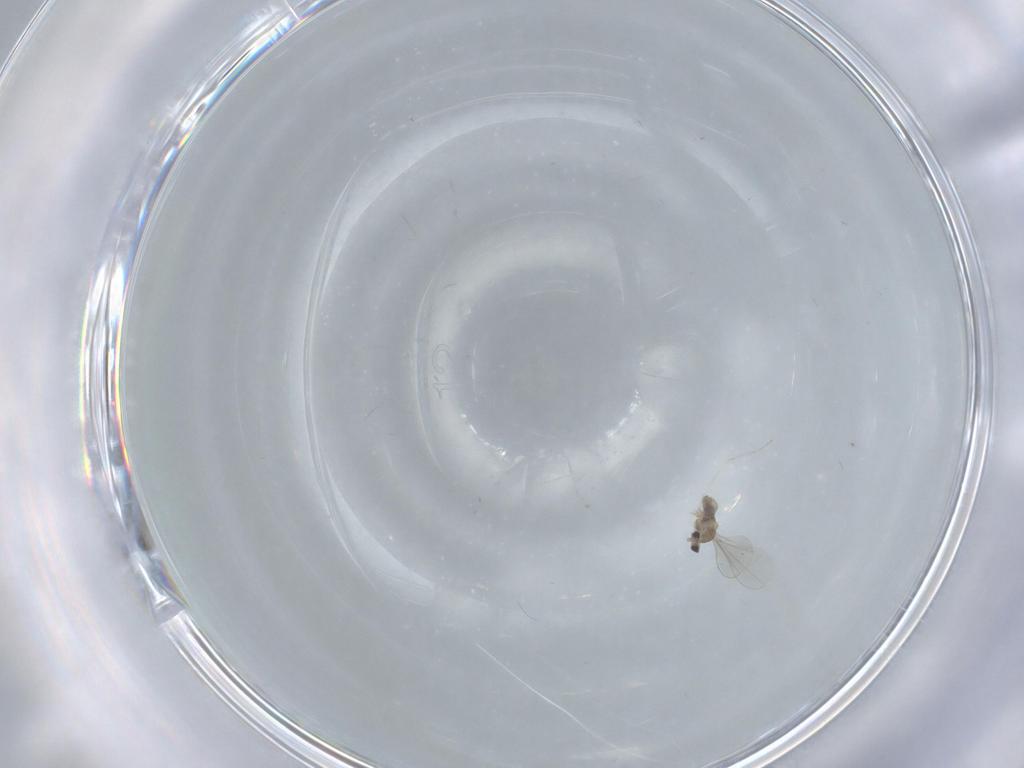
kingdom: Animalia
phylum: Arthropoda
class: Insecta
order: Diptera
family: Cecidomyiidae
